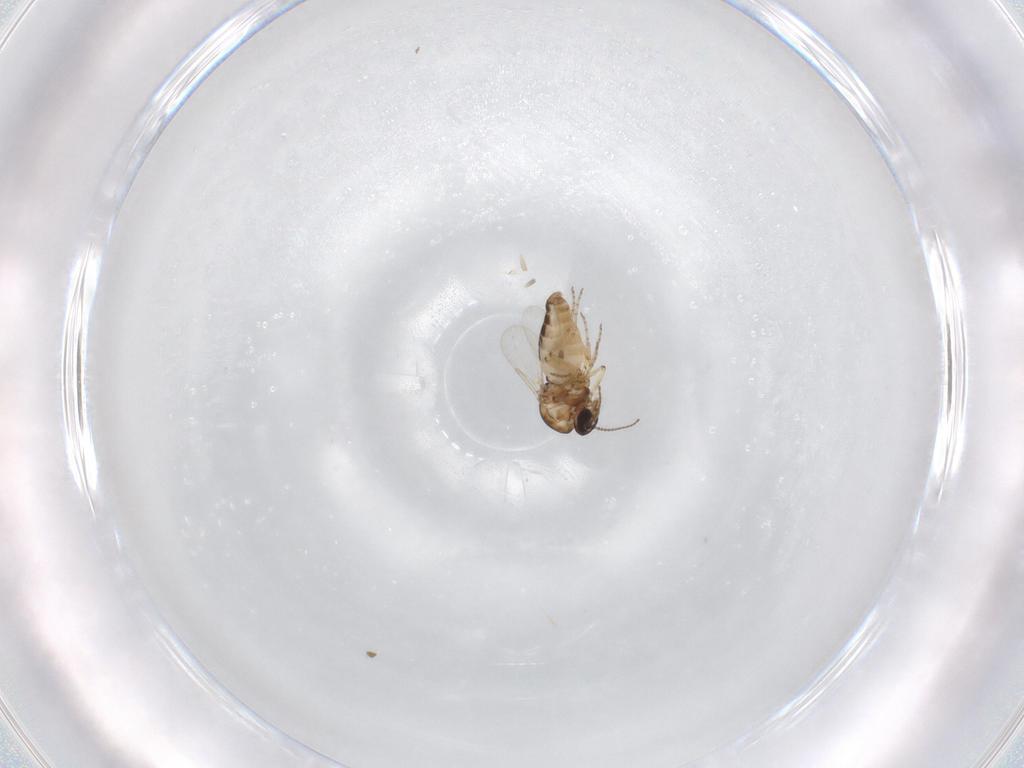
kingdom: Animalia
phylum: Arthropoda
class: Insecta
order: Diptera
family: Chloropidae
